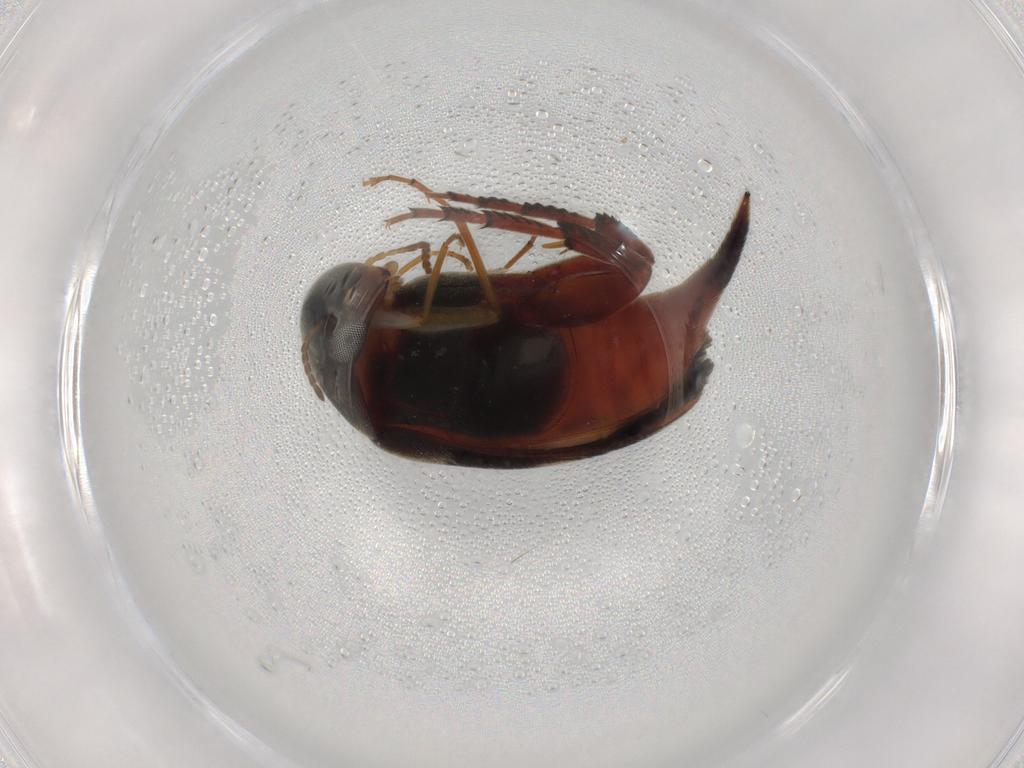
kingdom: Animalia
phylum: Arthropoda
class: Insecta
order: Coleoptera
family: Mordellidae
